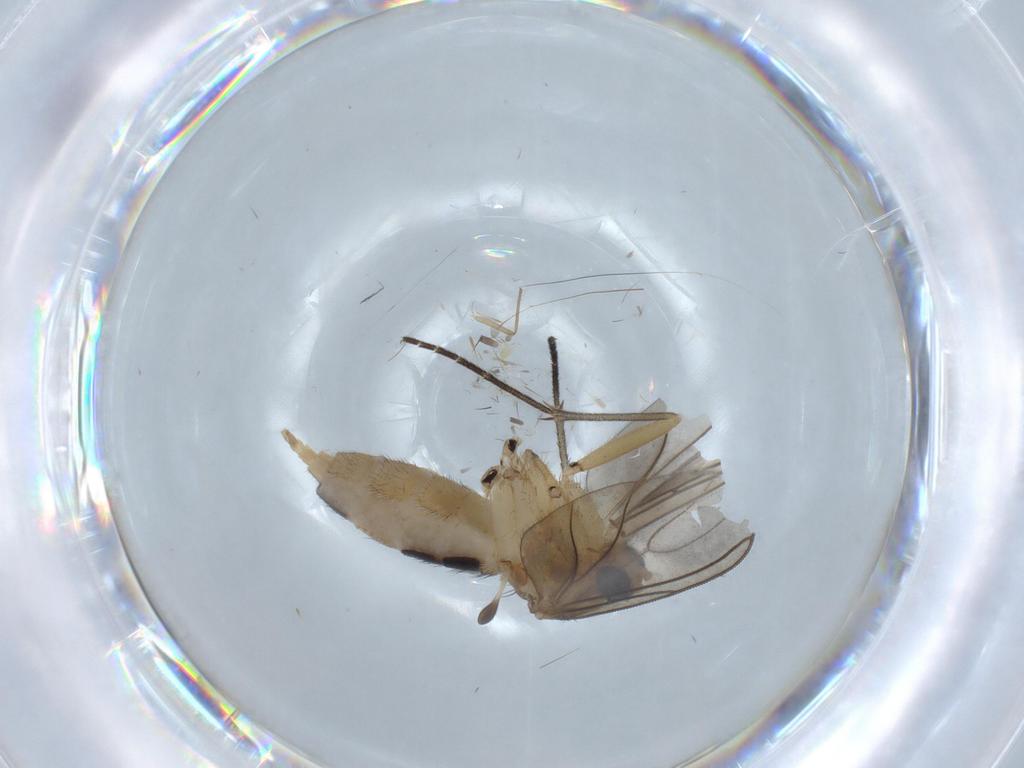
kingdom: Animalia
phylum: Arthropoda
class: Insecta
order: Diptera
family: Sciaridae
